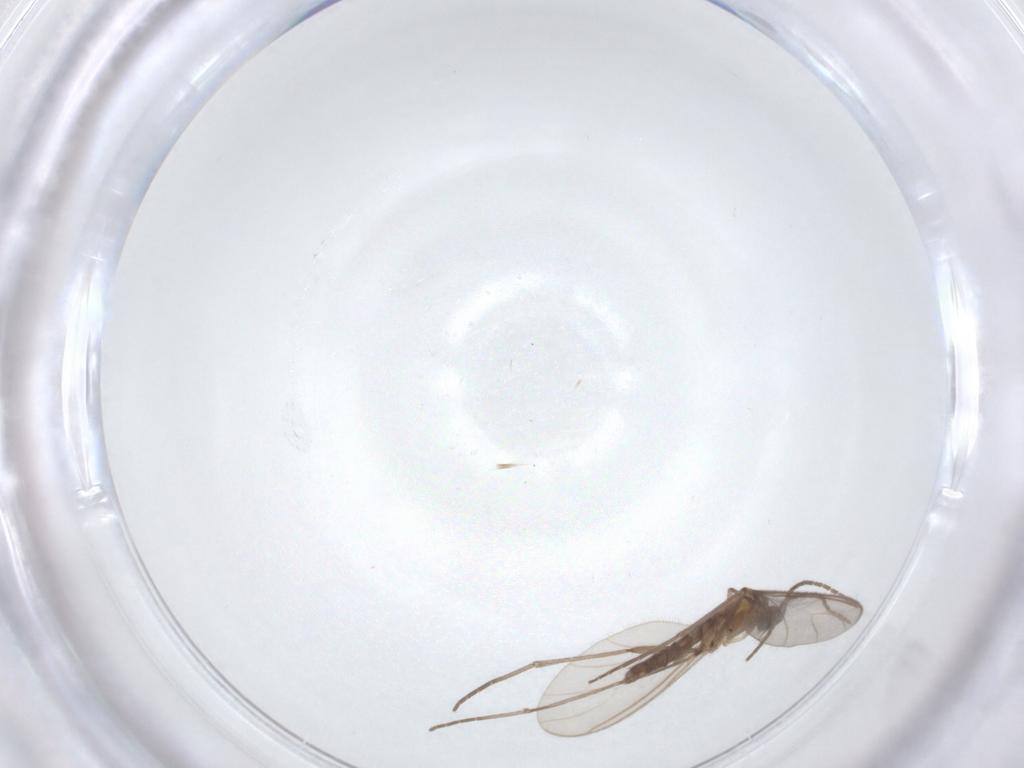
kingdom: Animalia
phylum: Arthropoda
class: Insecta
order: Diptera
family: Sciaridae
